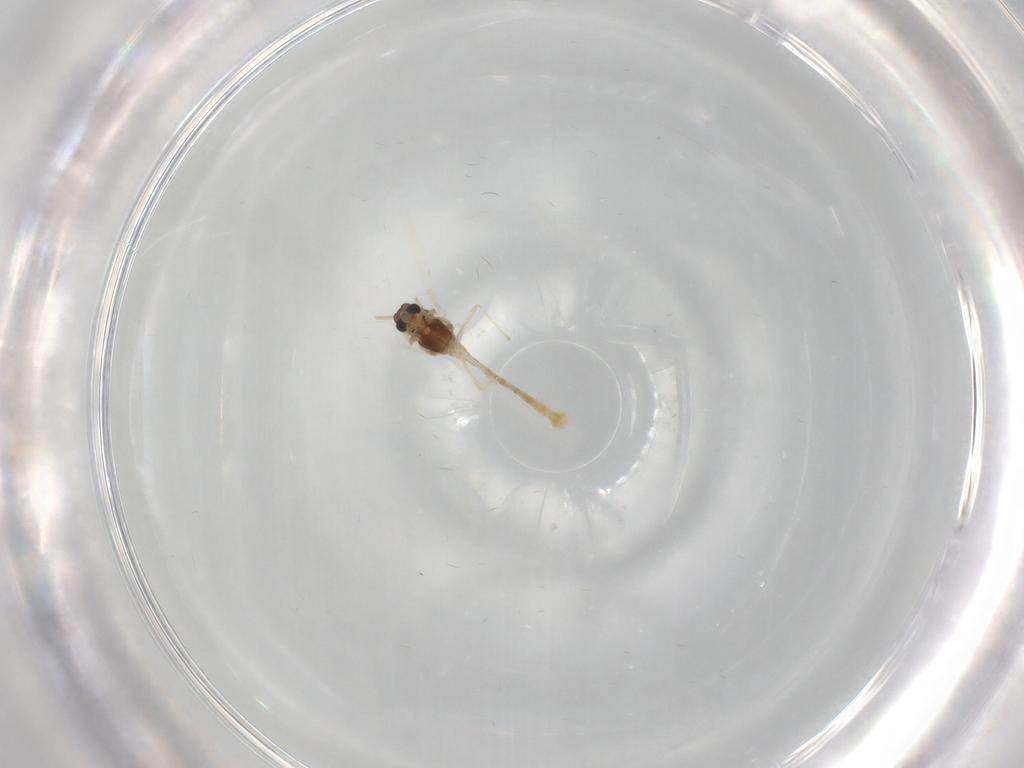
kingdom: Animalia
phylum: Arthropoda
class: Insecta
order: Diptera
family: Chironomidae
